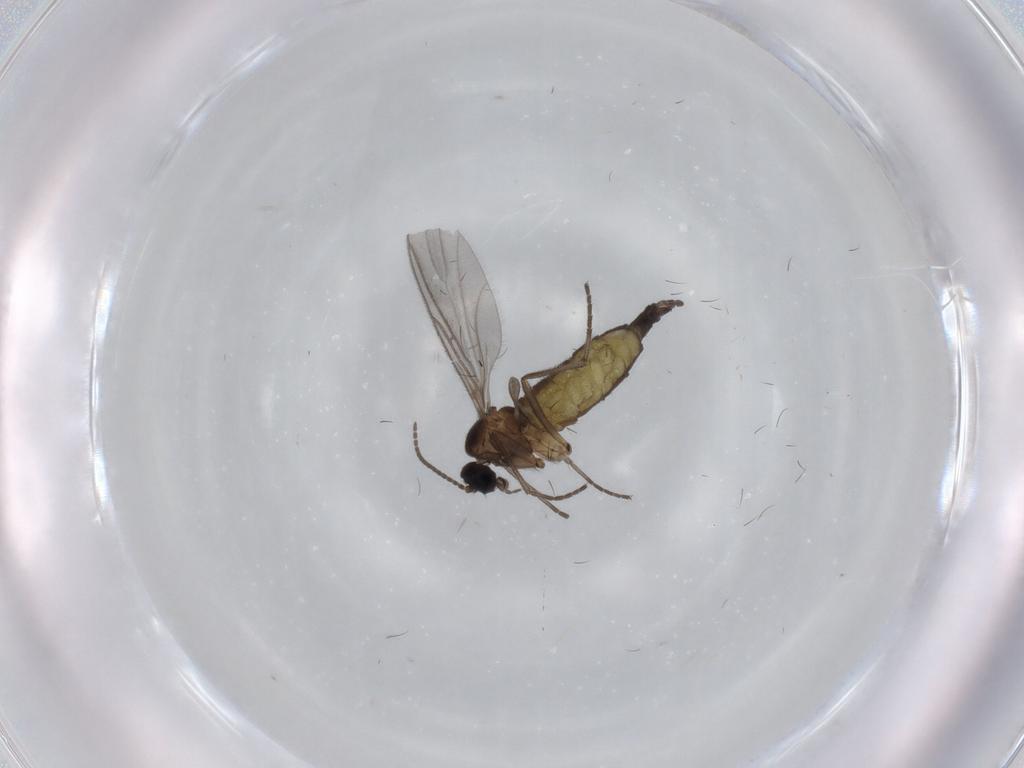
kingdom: Animalia
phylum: Arthropoda
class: Insecta
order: Diptera
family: Sciaridae
